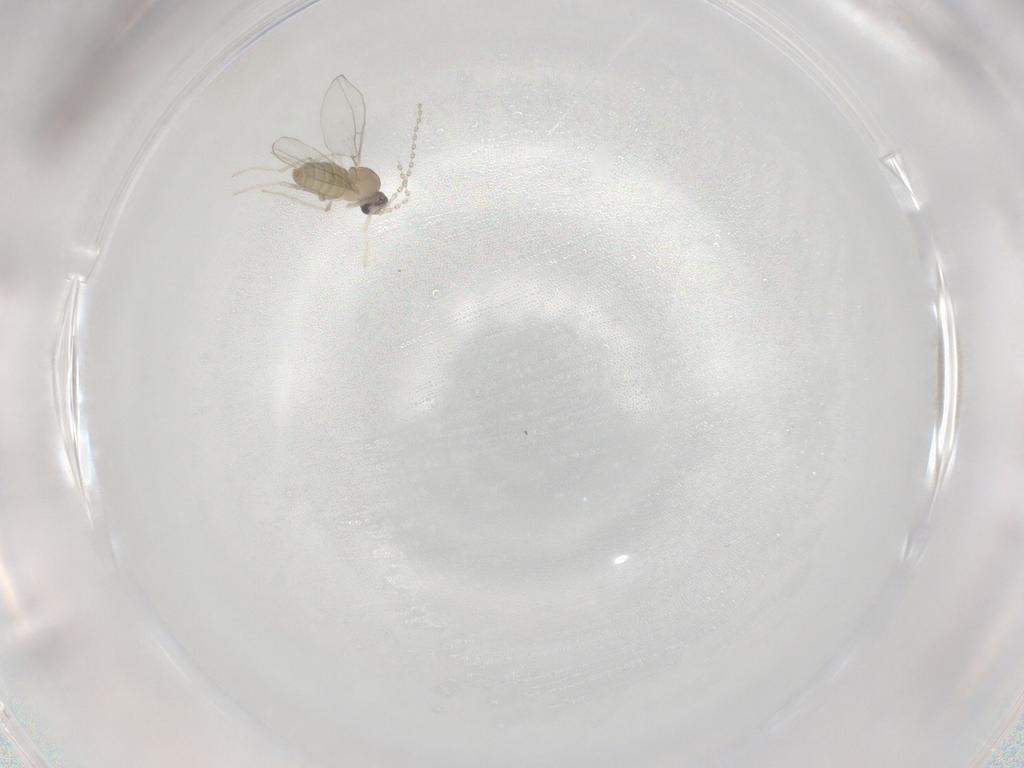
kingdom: Animalia
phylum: Arthropoda
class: Insecta
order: Diptera
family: Cecidomyiidae
